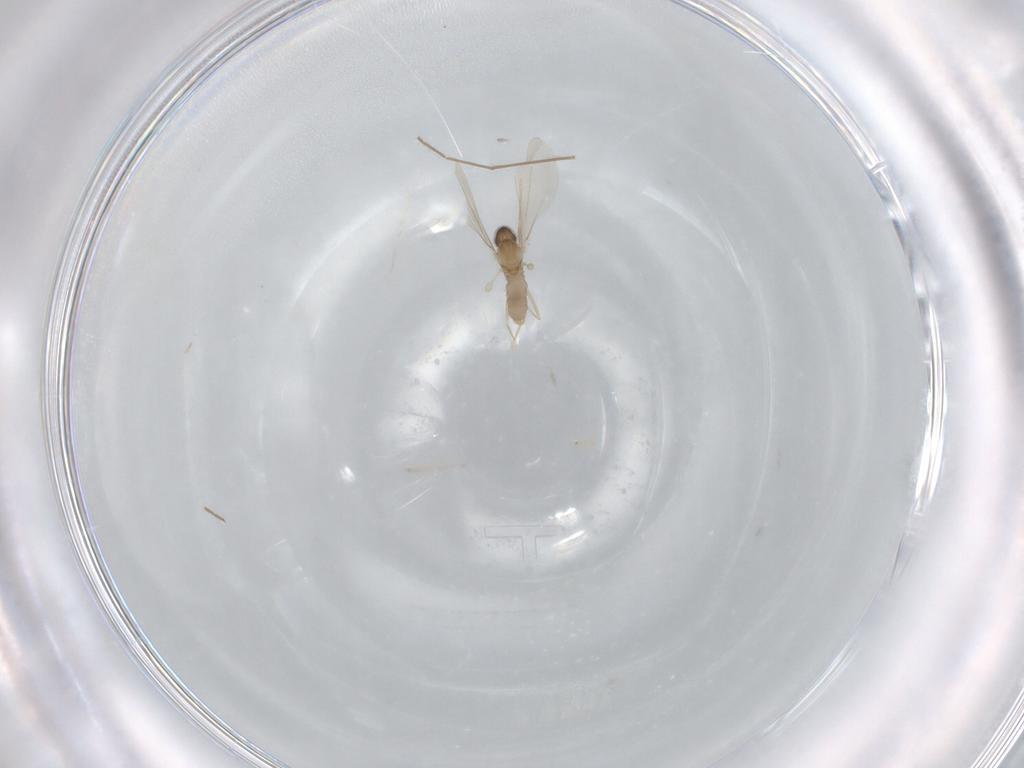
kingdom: Animalia
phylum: Arthropoda
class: Insecta
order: Diptera
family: Cecidomyiidae
